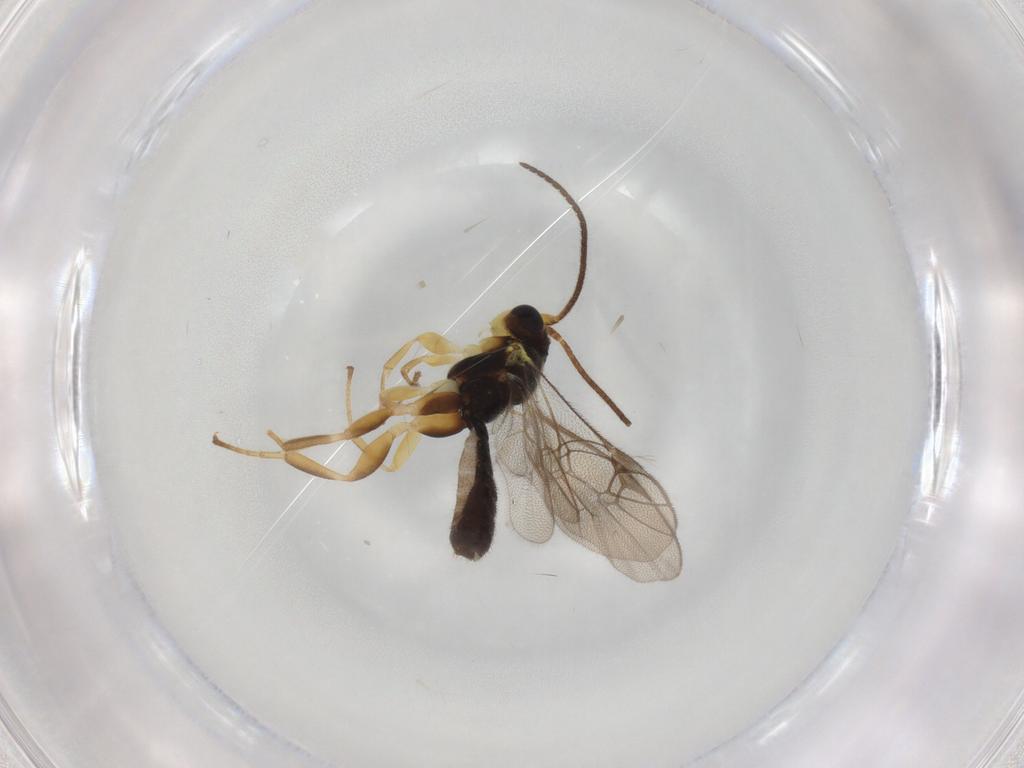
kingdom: Animalia
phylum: Arthropoda
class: Insecta
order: Hymenoptera
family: Ichneumonidae
